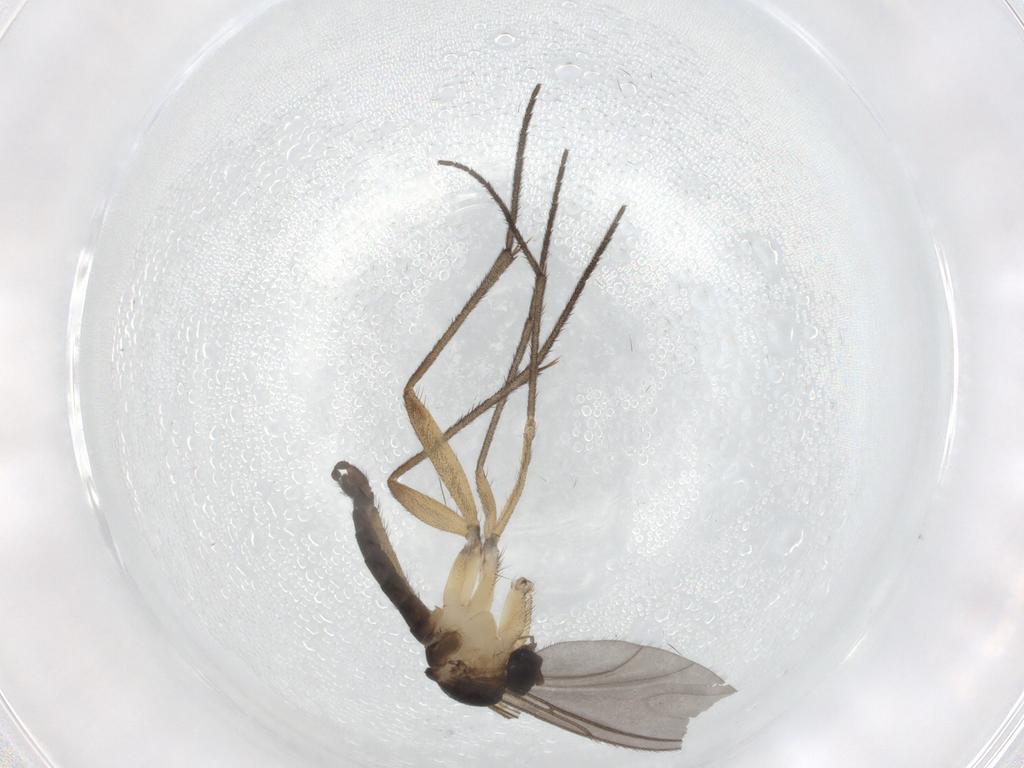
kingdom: Animalia
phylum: Arthropoda
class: Insecta
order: Diptera
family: Sciaridae
